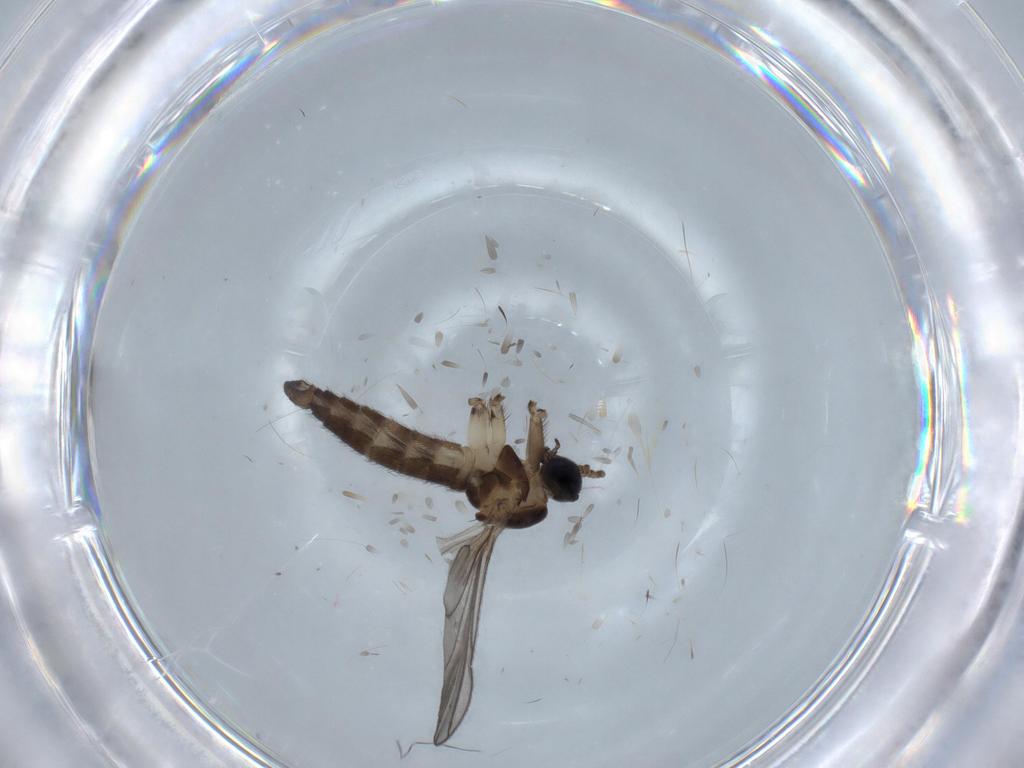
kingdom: Animalia
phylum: Arthropoda
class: Insecta
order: Diptera
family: Sciaridae
